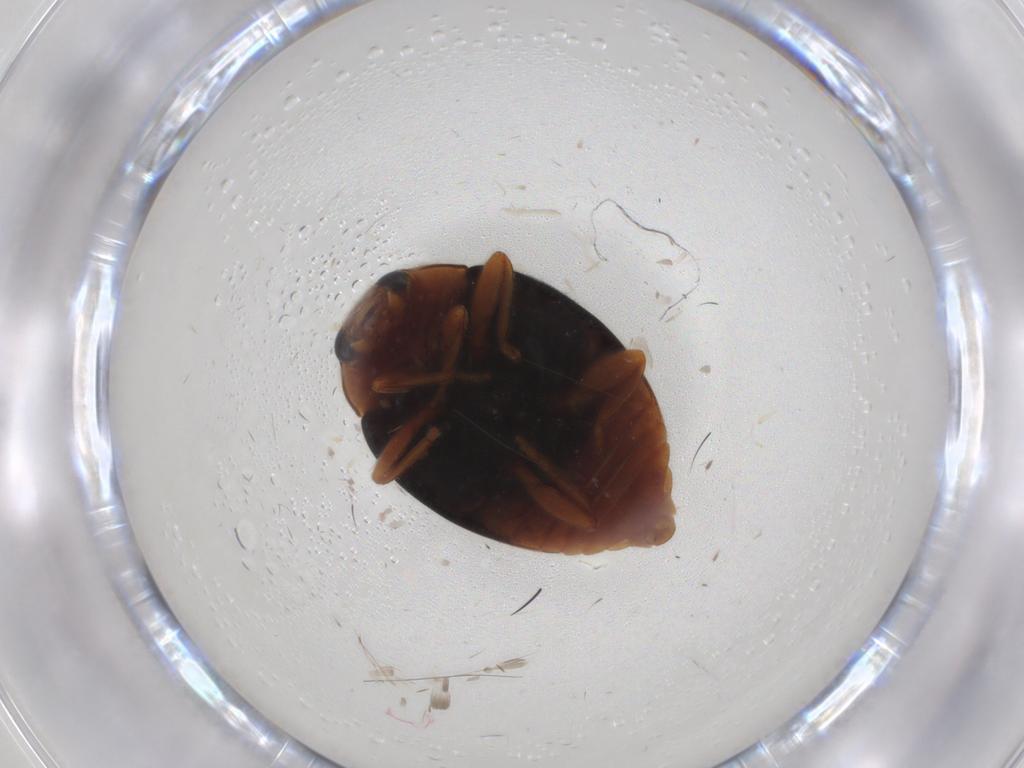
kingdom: Animalia
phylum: Arthropoda
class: Insecta
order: Coleoptera
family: Coccinellidae
